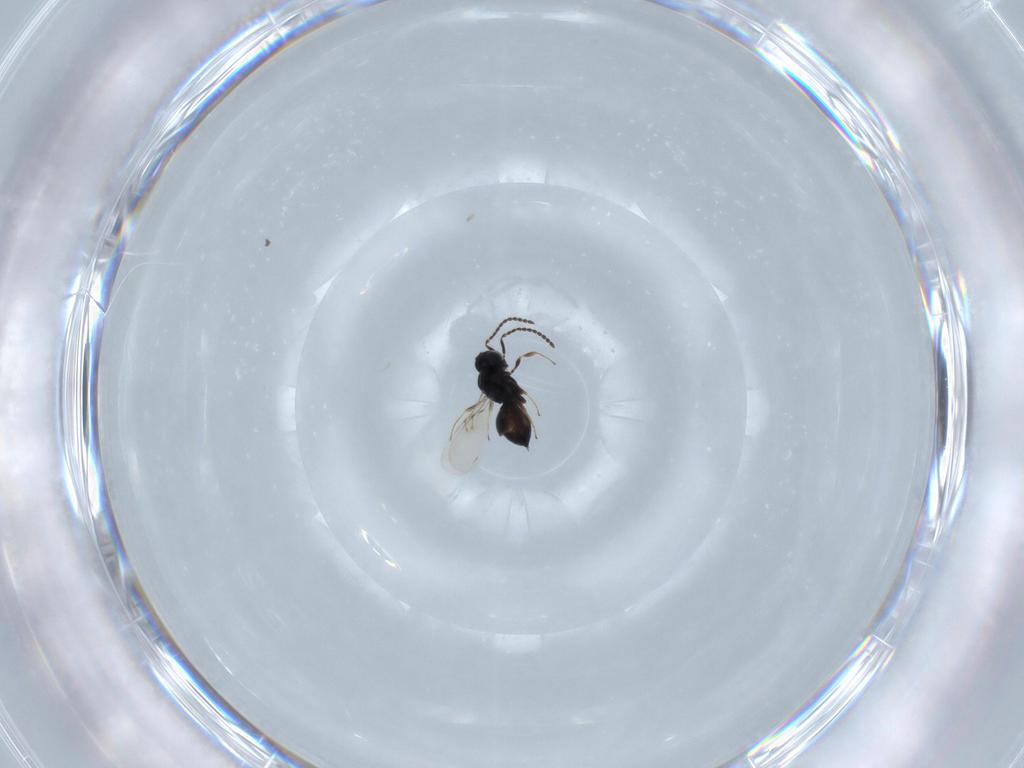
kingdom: Animalia
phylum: Arthropoda
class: Insecta
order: Hymenoptera
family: Scelionidae
